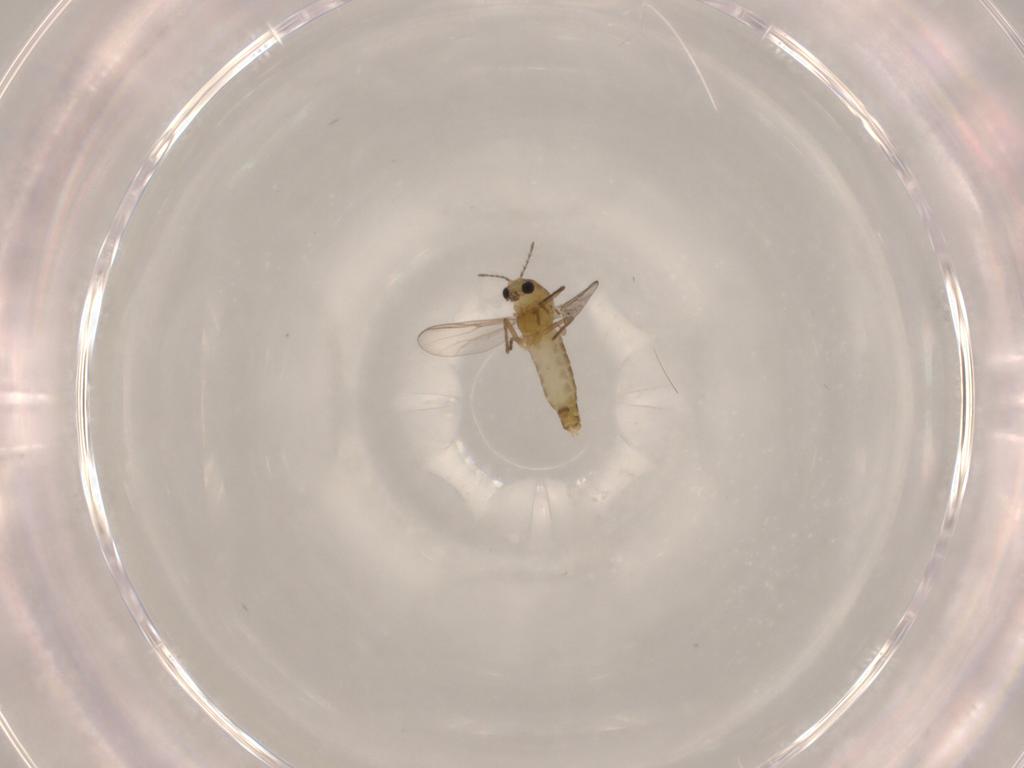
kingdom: Animalia
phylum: Arthropoda
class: Insecta
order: Diptera
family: Chironomidae
